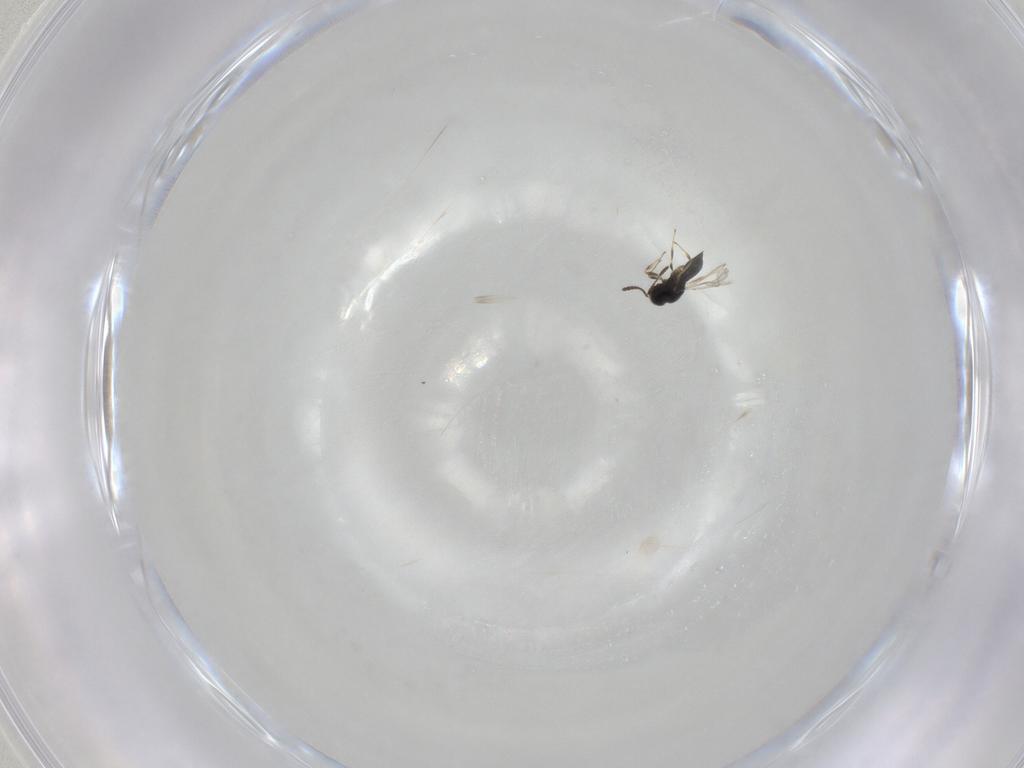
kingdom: Animalia
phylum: Arthropoda
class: Insecta
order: Hymenoptera
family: Scelionidae
